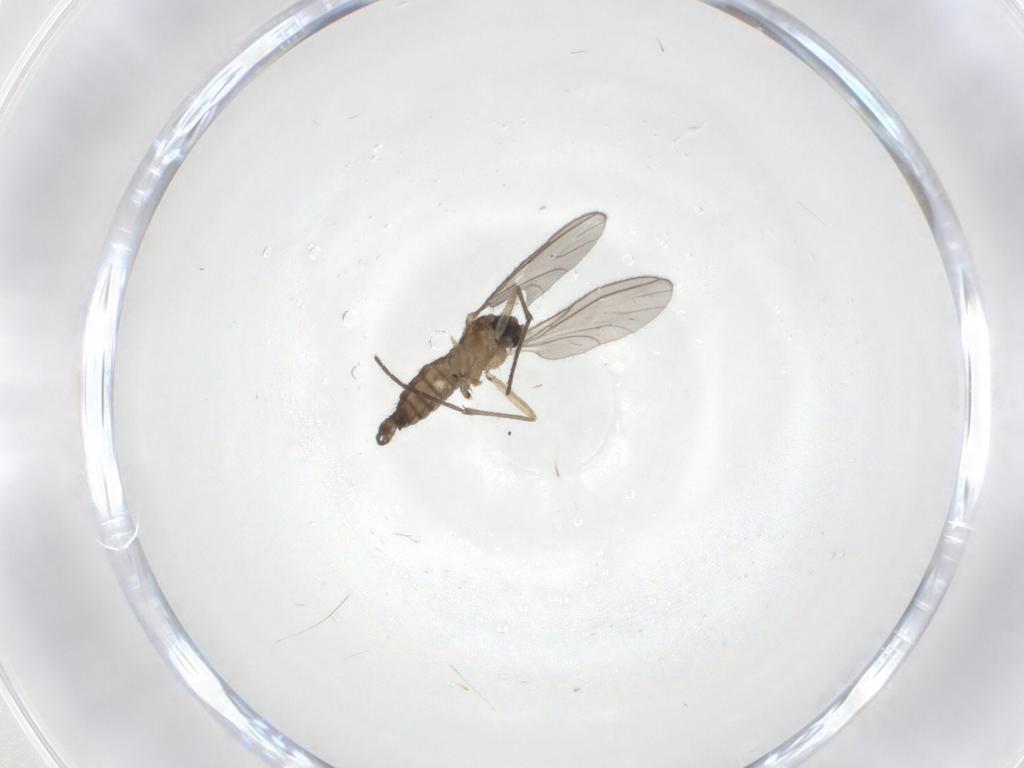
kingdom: Animalia
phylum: Arthropoda
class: Insecta
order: Diptera
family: Sciaridae
